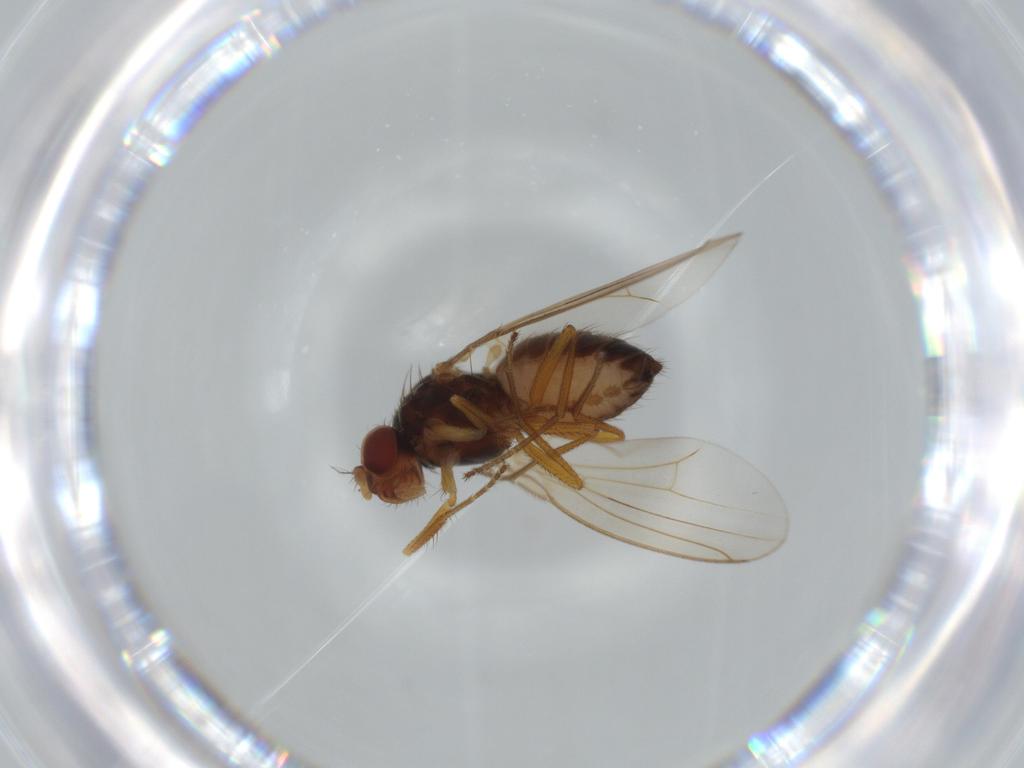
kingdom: Animalia
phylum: Arthropoda
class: Insecta
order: Diptera
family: Drosophilidae
